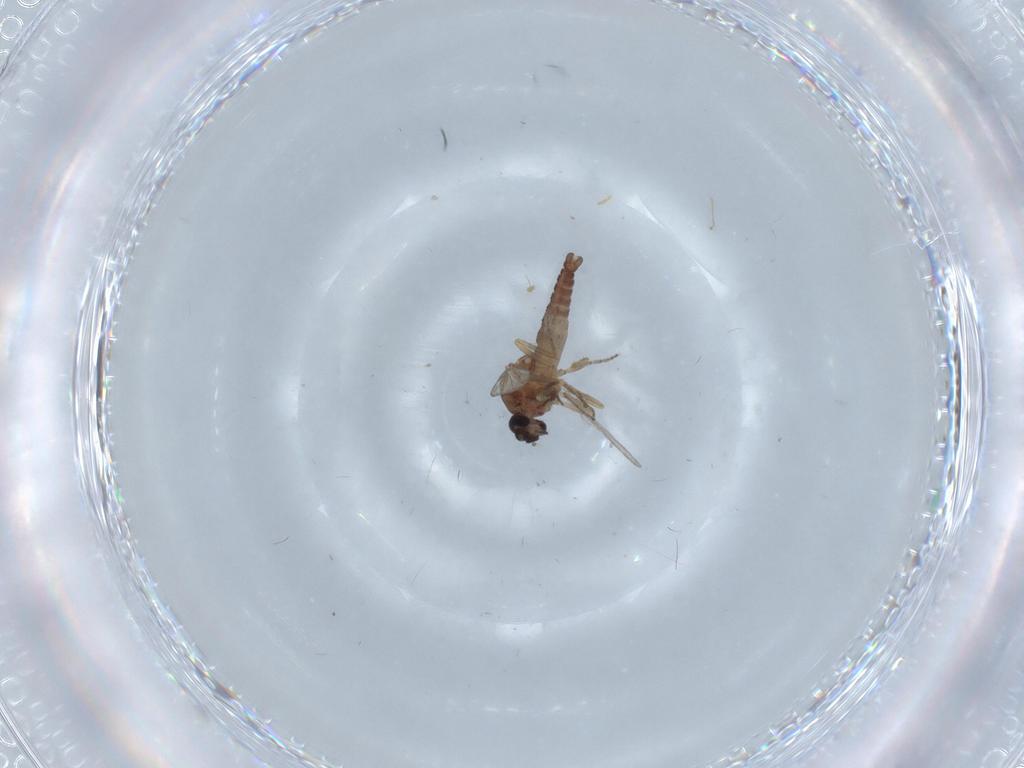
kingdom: Animalia
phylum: Arthropoda
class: Insecta
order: Diptera
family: Ceratopogonidae
